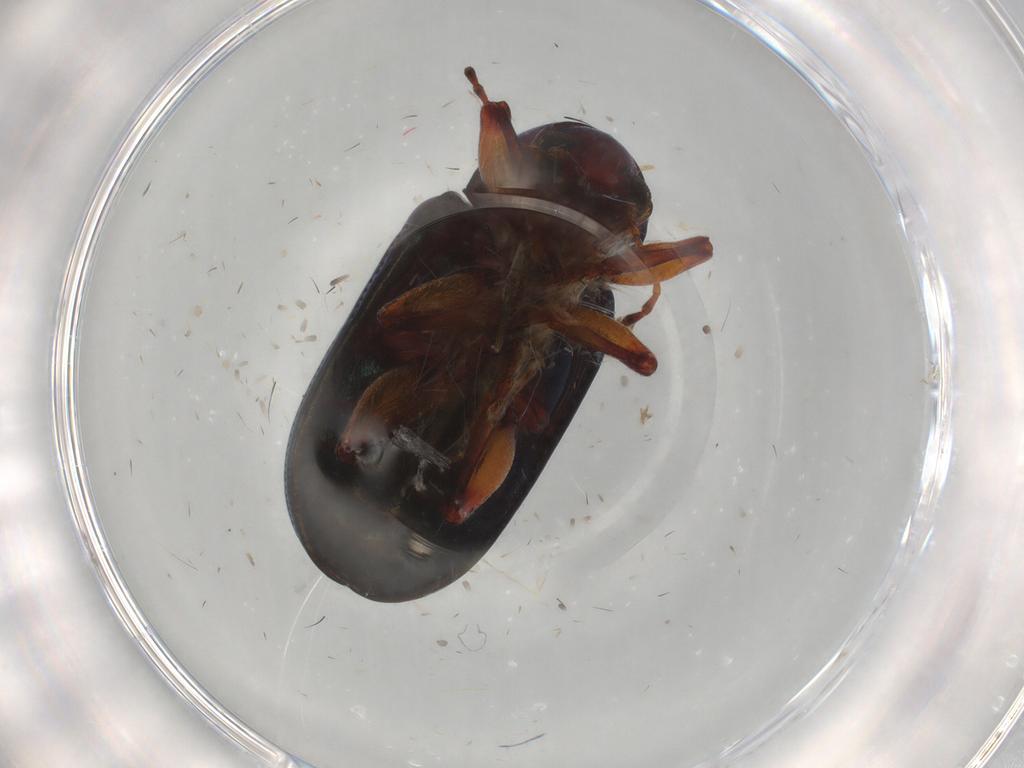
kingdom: Animalia
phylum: Arthropoda
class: Insecta
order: Coleoptera
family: Chrysomelidae
